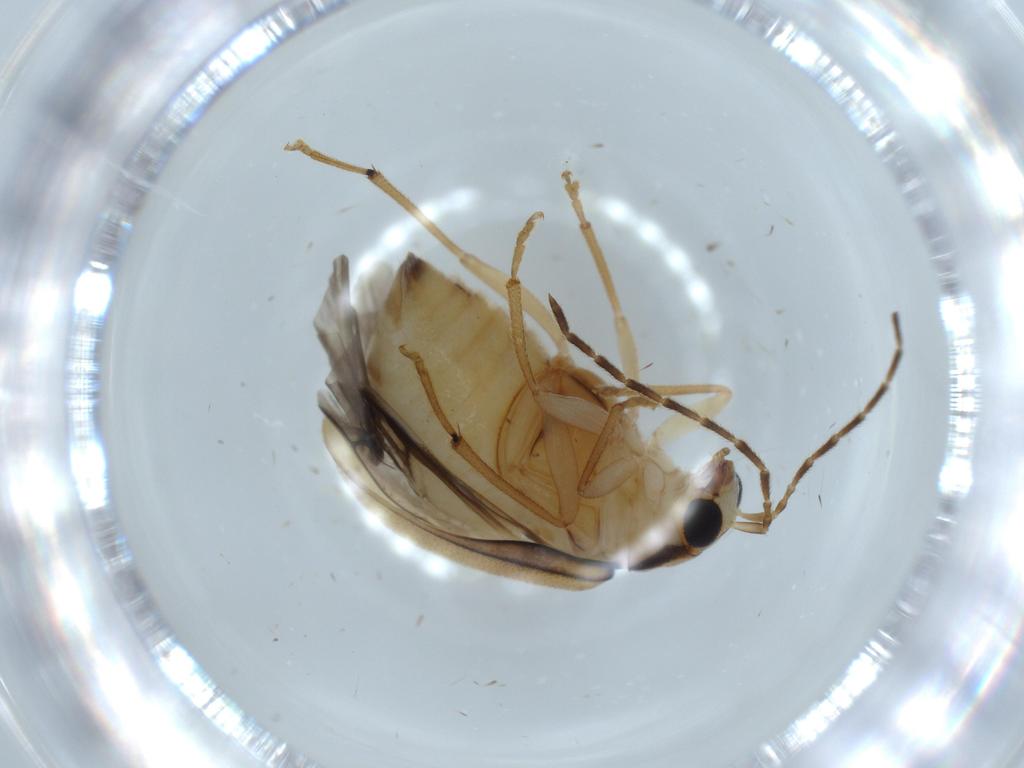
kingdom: Animalia
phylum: Arthropoda
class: Insecta
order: Coleoptera
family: Chrysomelidae
